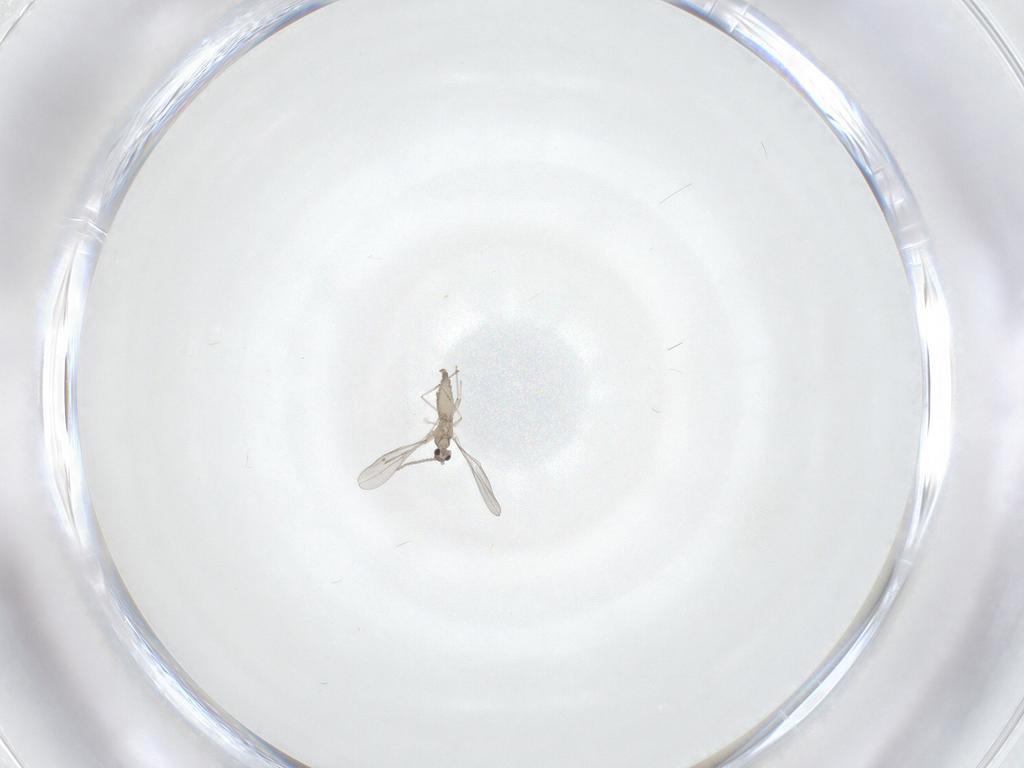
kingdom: Animalia
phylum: Arthropoda
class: Insecta
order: Diptera
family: Cecidomyiidae
